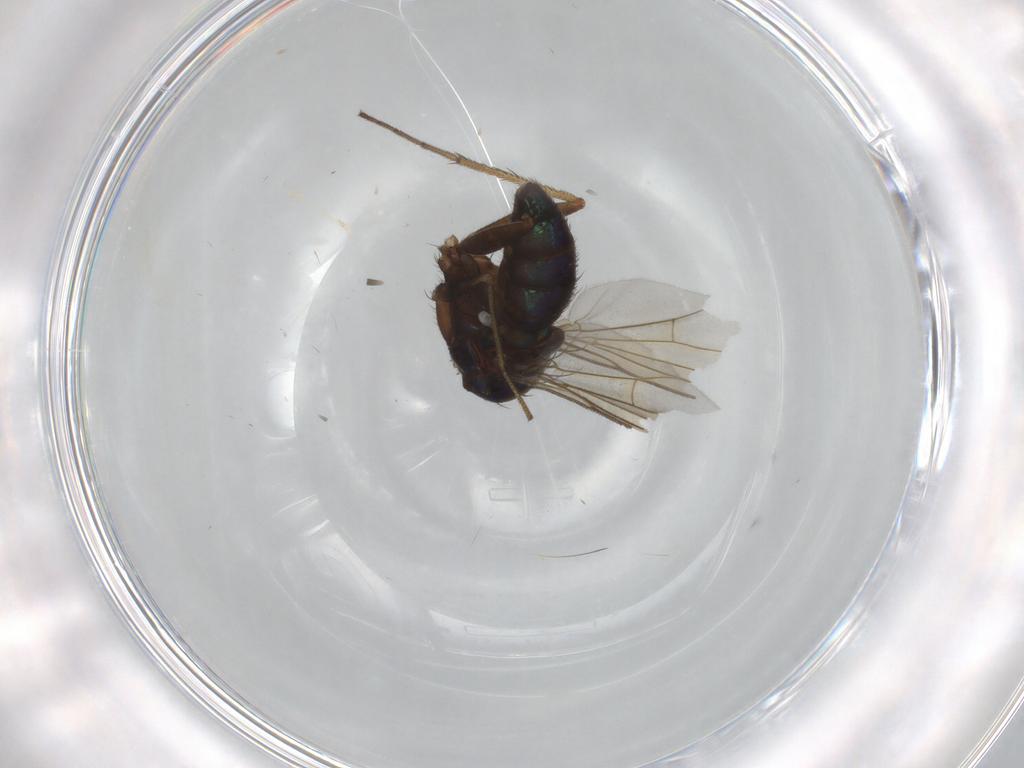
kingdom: Animalia
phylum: Arthropoda
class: Insecta
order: Diptera
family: Dolichopodidae
